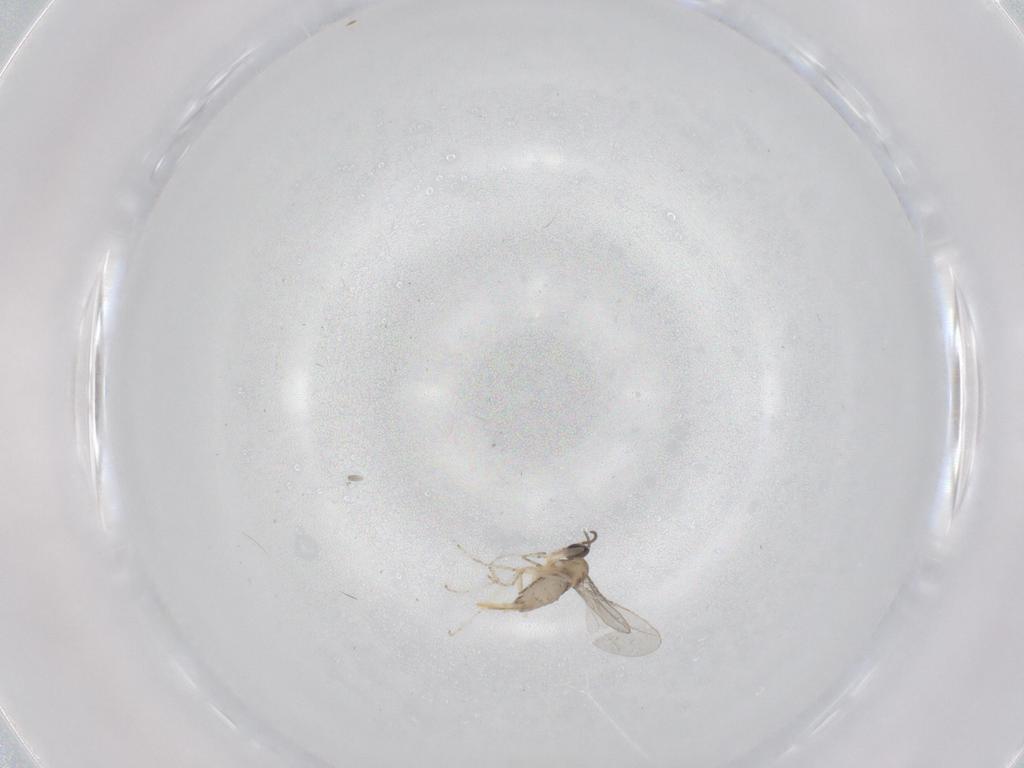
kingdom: Animalia
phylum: Arthropoda
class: Insecta
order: Diptera
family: Cecidomyiidae
